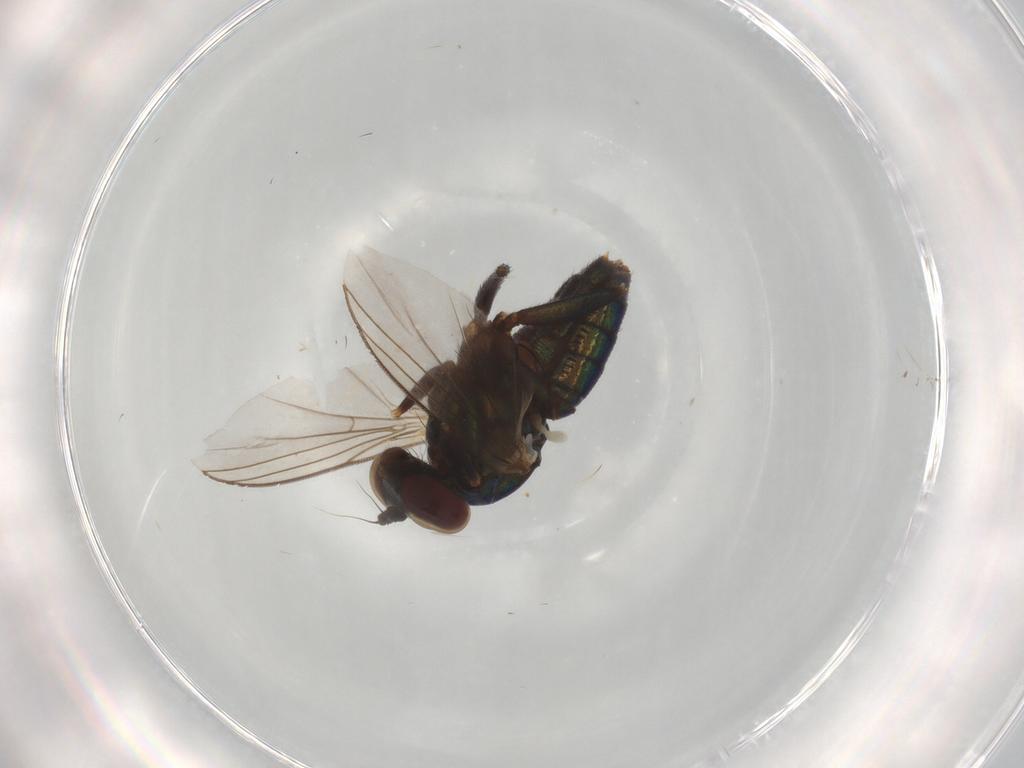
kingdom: Animalia
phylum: Arthropoda
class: Insecta
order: Diptera
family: Dolichopodidae
